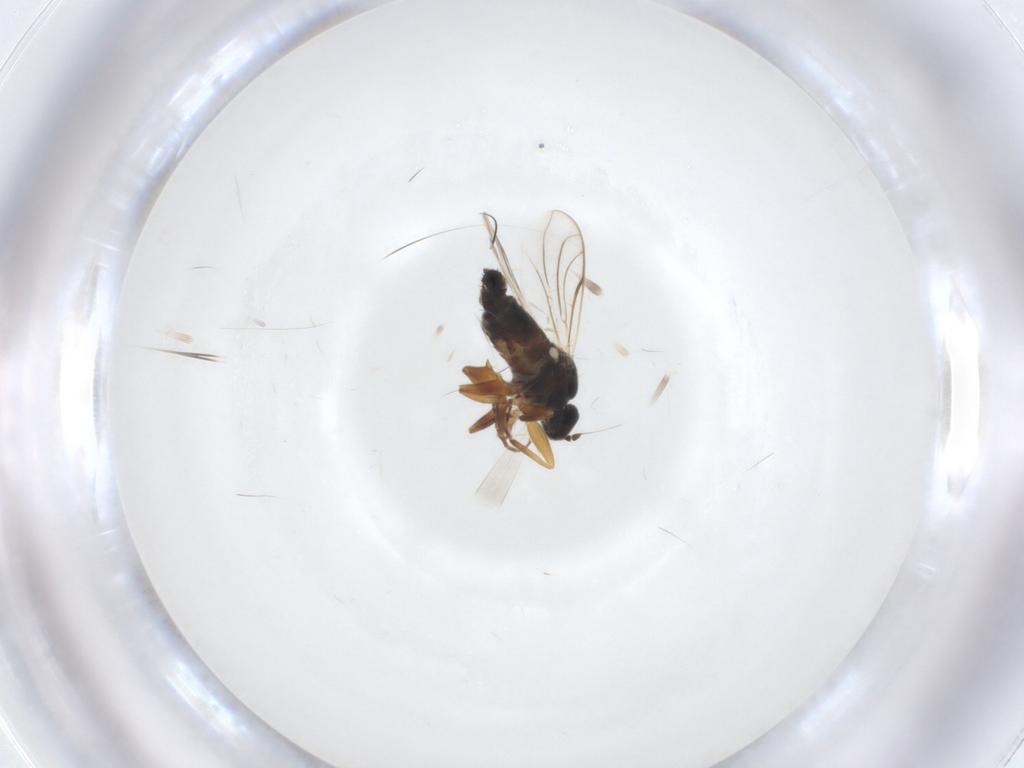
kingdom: Animalia
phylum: Arthropoda
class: Insecta
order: Diptera
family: Hybotidae
